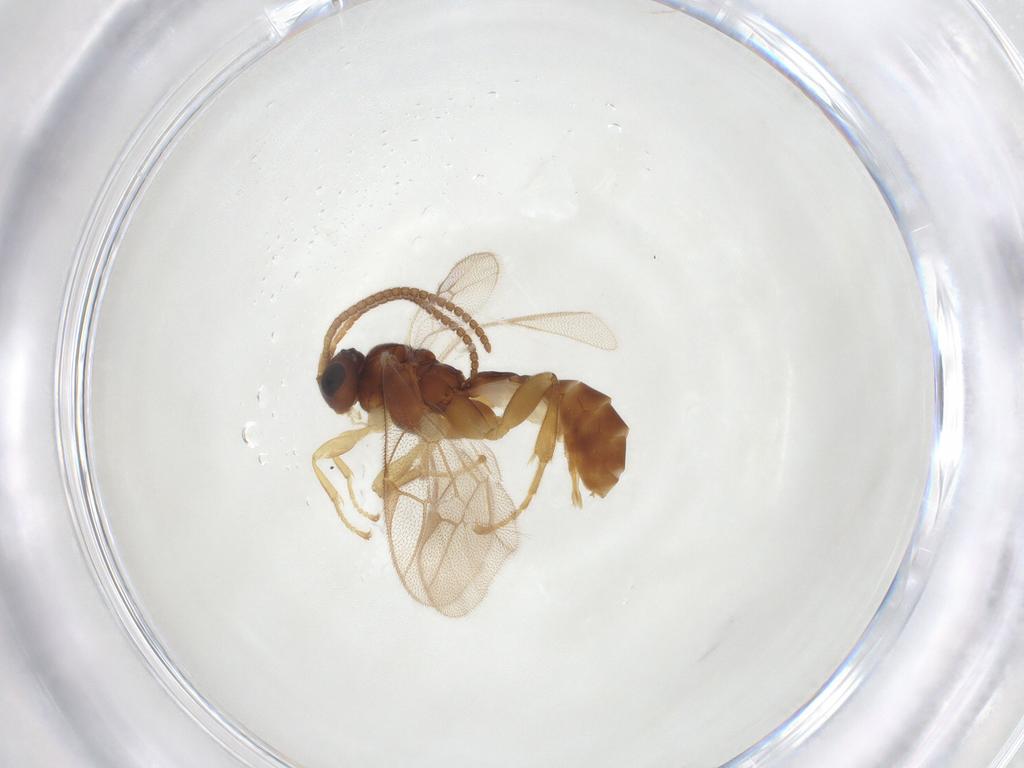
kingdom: Animalia
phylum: Arthropoda
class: Insecta
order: Hymenoptera
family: Ichneumonidae
